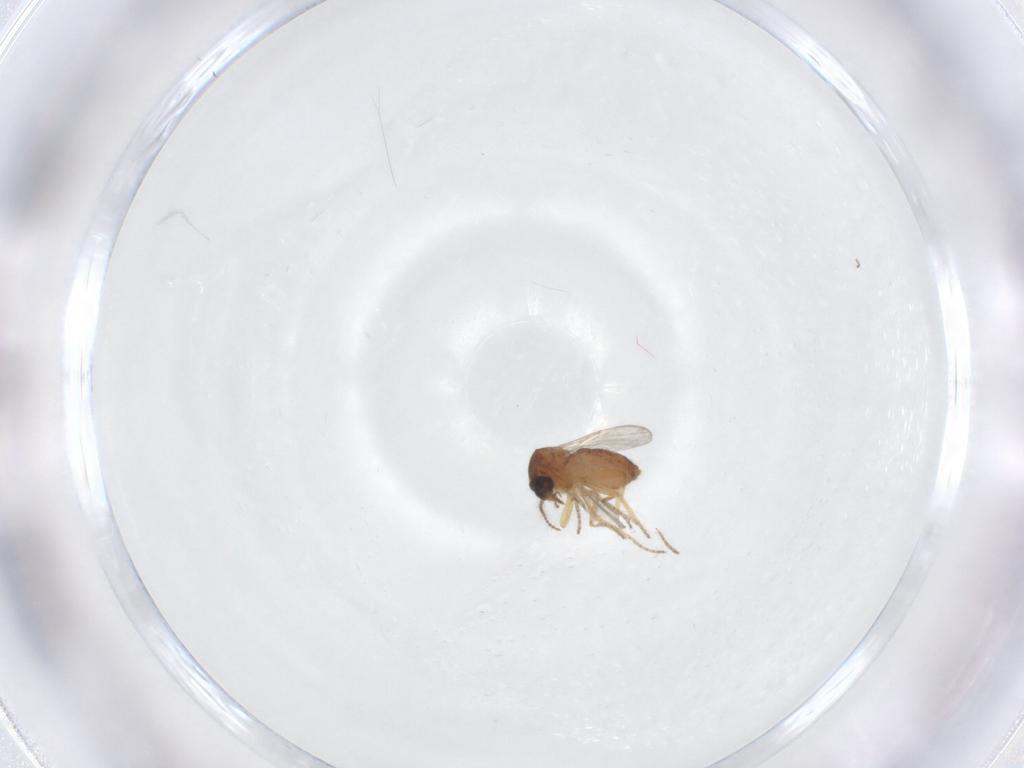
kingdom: Animalia
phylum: Arthropoda
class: Insecta
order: Diptera
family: Ceratopogonidae
